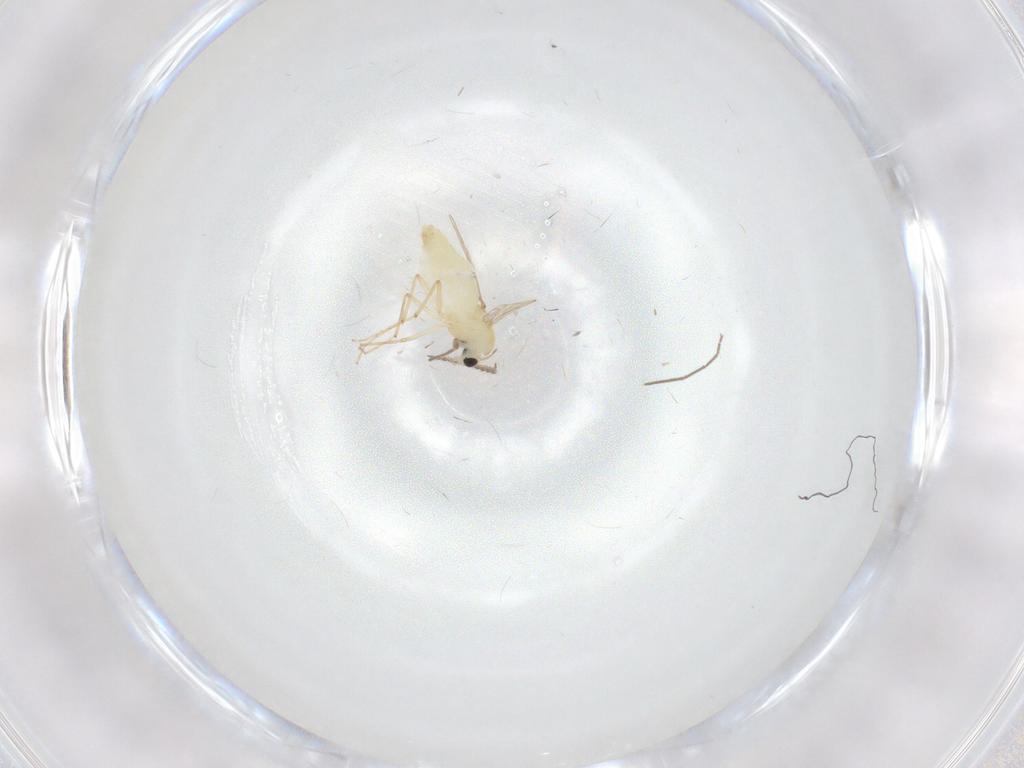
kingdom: Animalia
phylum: Arthropoda
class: Insecta
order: Diptera
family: Chironomidae
